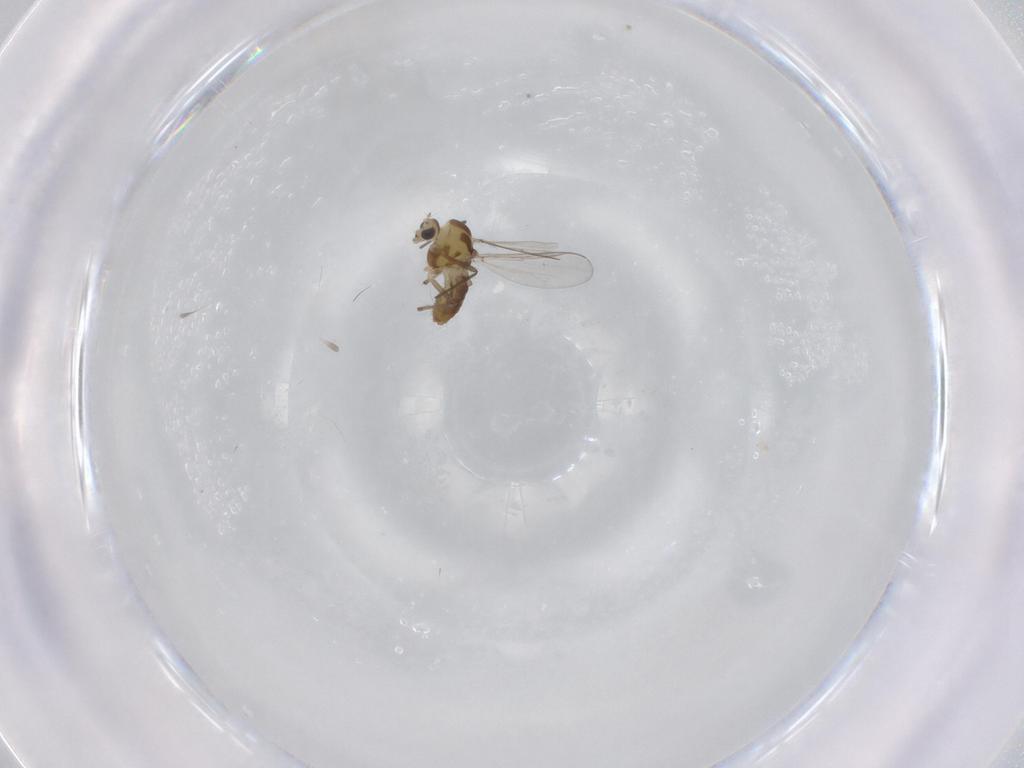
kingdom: Animalia
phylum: Arthropoda
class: Insecta
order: Diptera
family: Chironomidae
